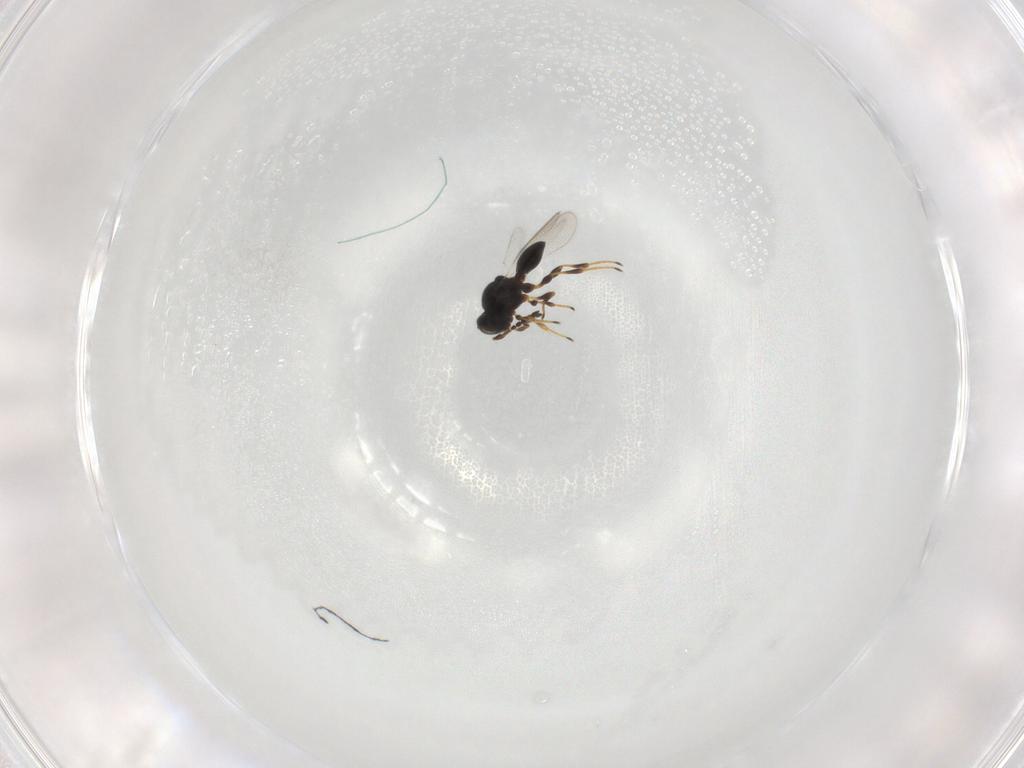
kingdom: Animalia
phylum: Arthropoda
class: Insecta
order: Hymenoptera
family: Platygastridae
